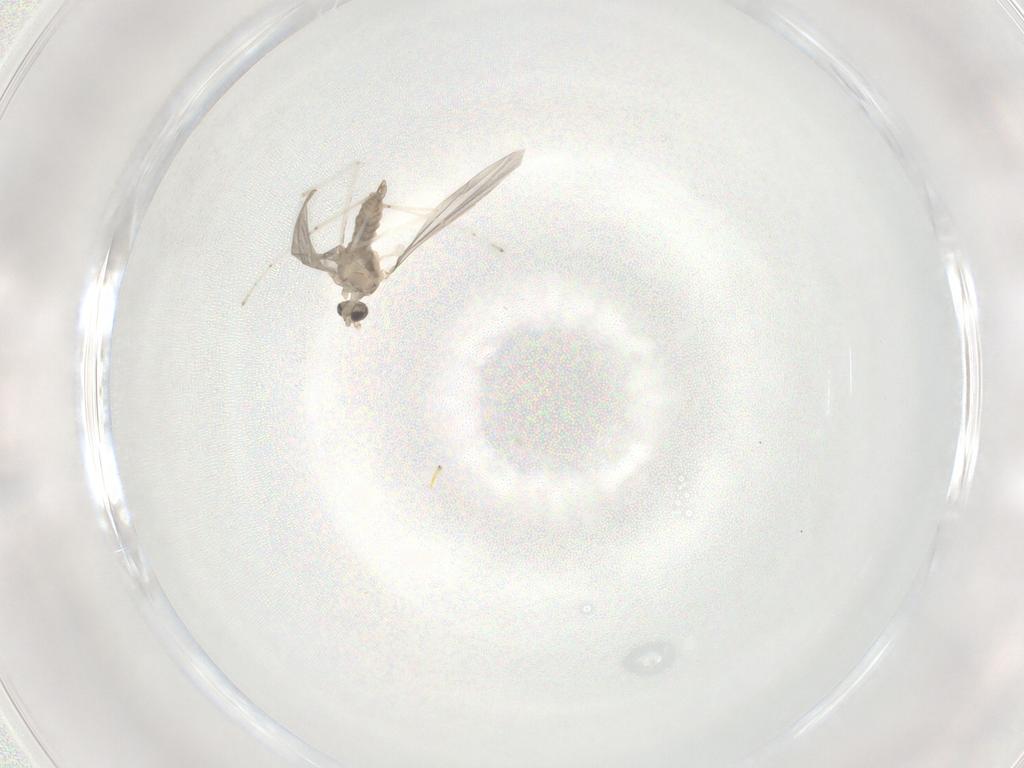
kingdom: Animalia
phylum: Arthropoda
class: Insecta
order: Diptera
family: Cecidomyiidae
